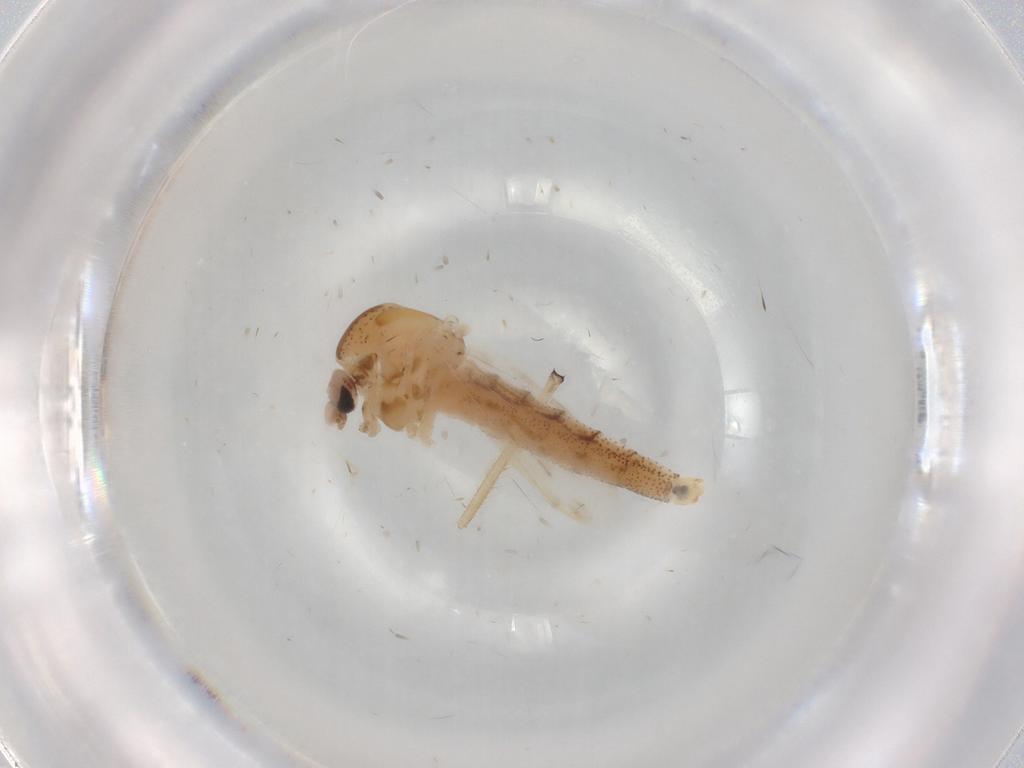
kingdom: Animalia
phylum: Arthropoda
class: Insecta
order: Diptera
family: Chaoboridae
